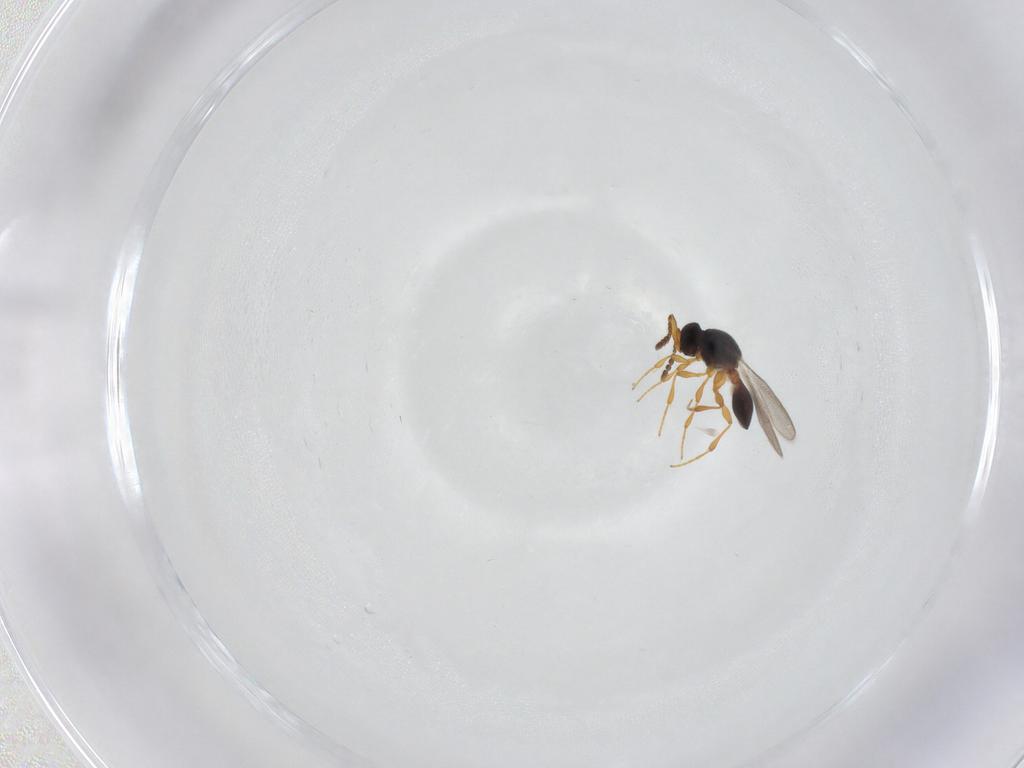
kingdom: Animalia
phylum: Arthropoda
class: Insecta
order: Hymenoptera
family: Platygastridae
